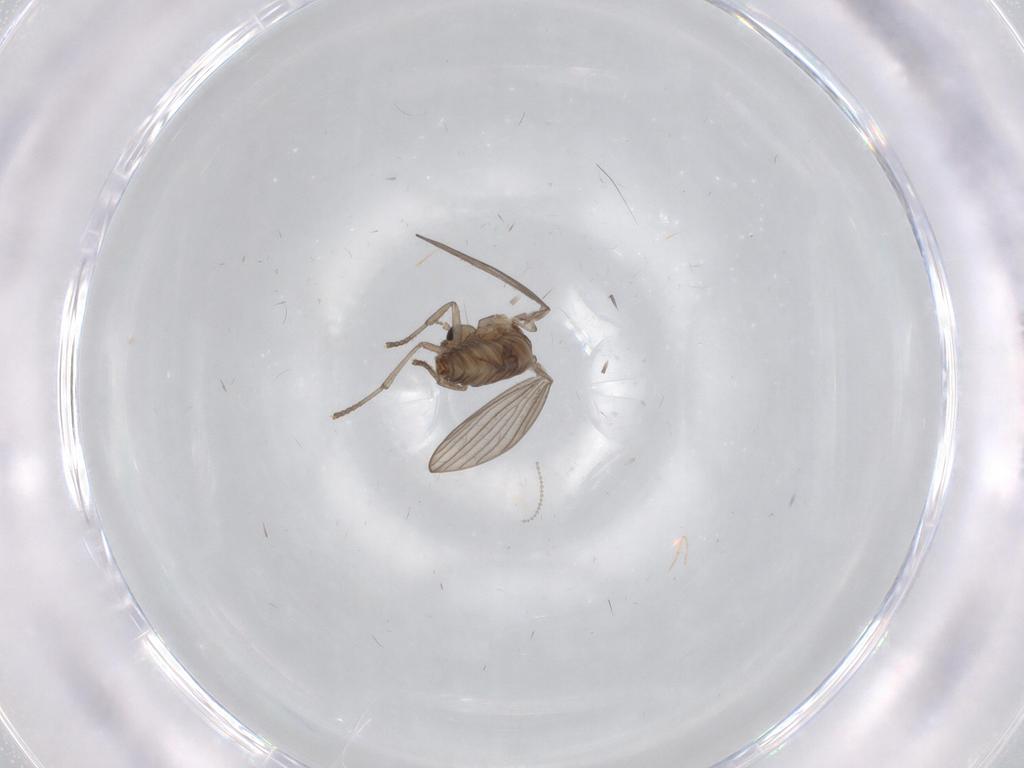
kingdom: Animalia
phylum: Arthropoda
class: Insecta
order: Diptera
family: Psychodidae
